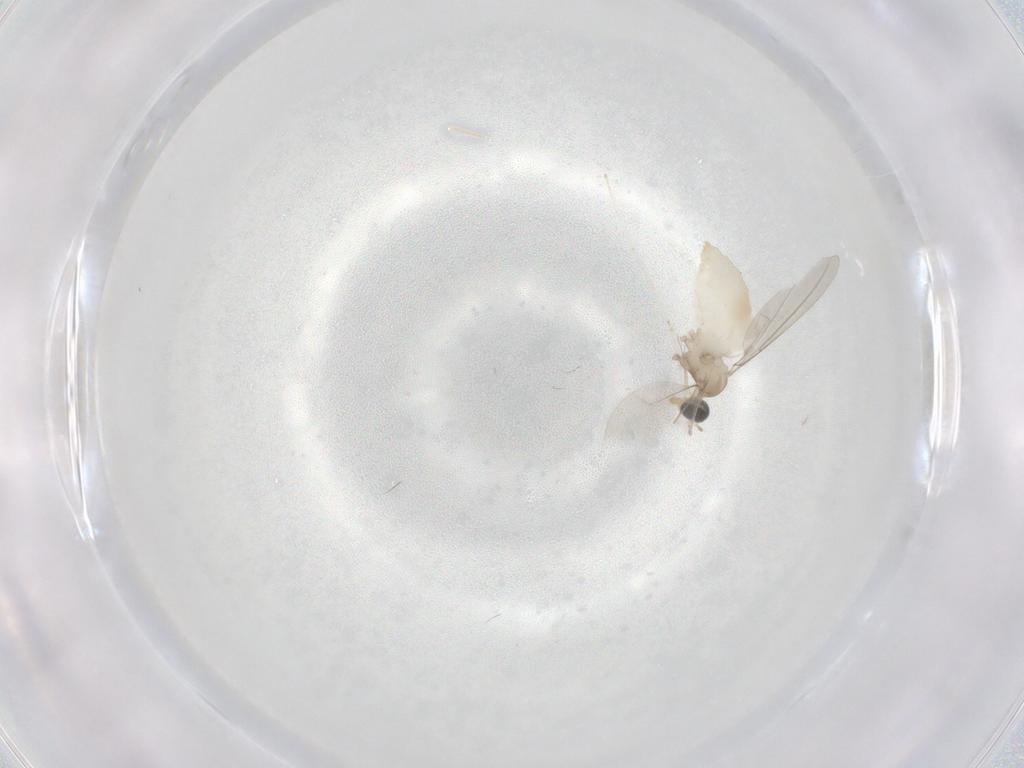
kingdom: Animalia
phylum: Arthropoda
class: Insecta
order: Diptera
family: Cecidomyiidae
